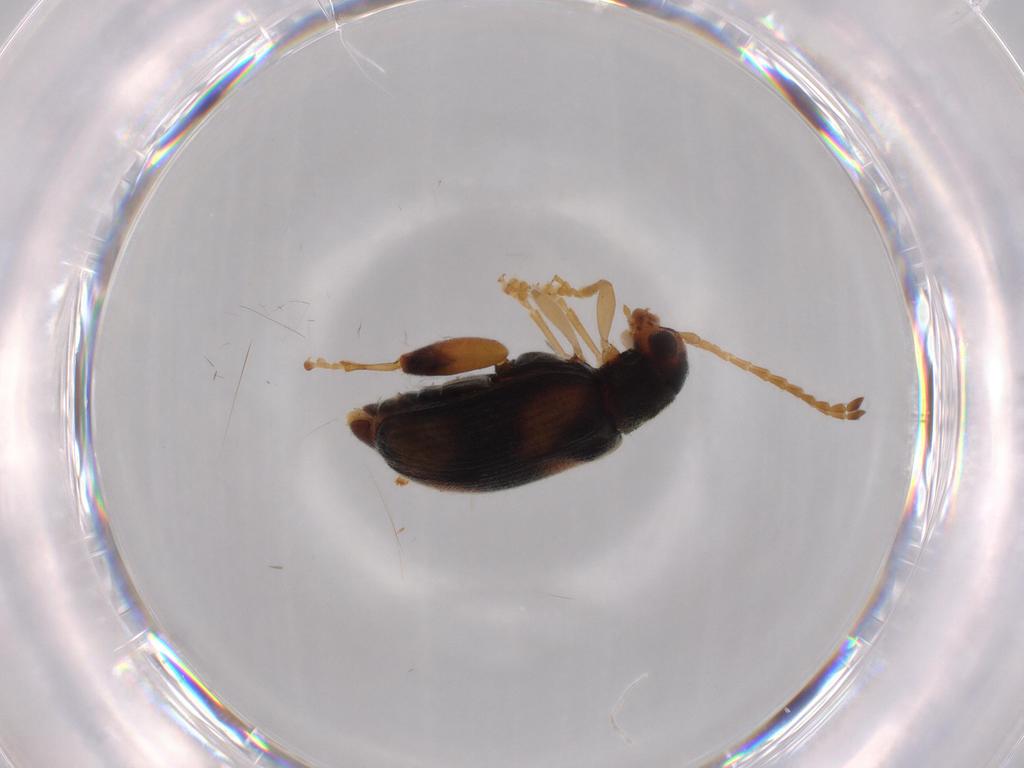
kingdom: Animalia
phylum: Arthropoda
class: Insecta
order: Coleoptera
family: Chrysomelidae
